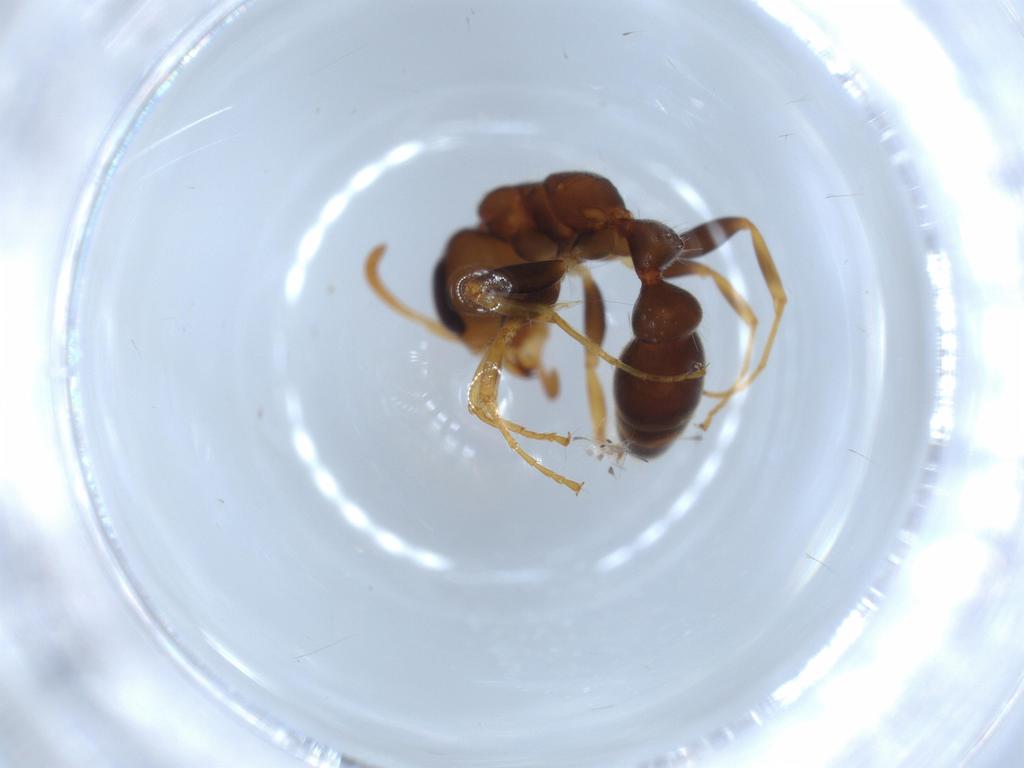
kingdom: Animalia
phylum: Arthropoda
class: Insecta
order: Hymenoptera
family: Formicidae
